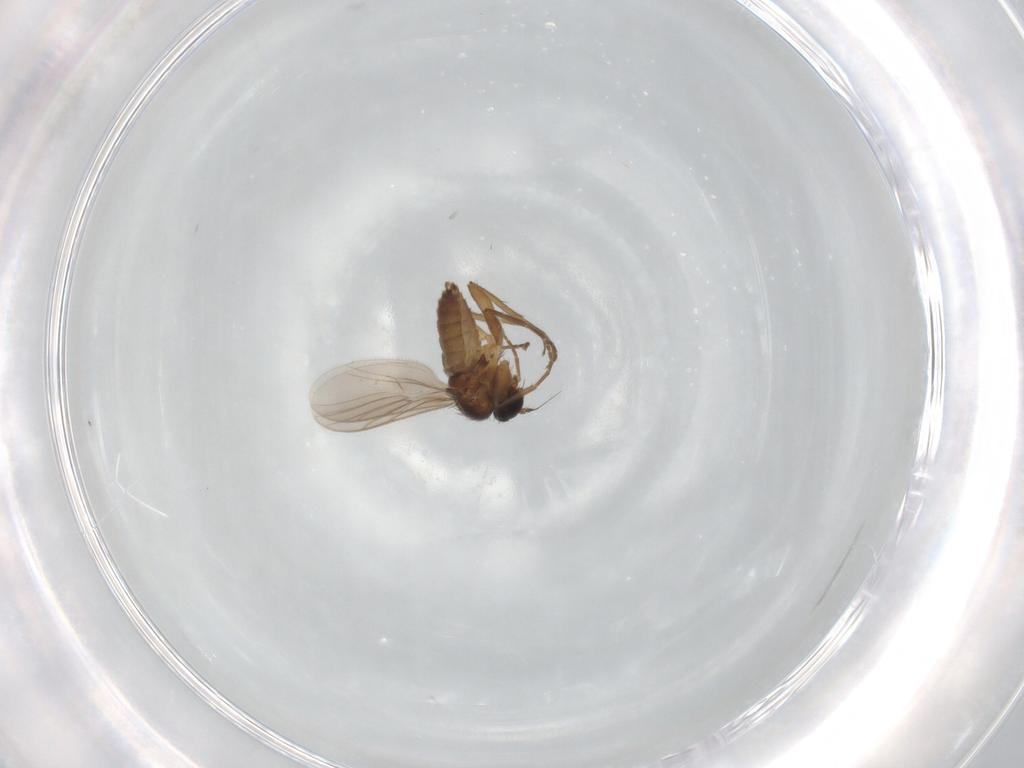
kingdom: Animalia
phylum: Arthropoda
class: Insecta
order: Diptera
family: Hybotidae
